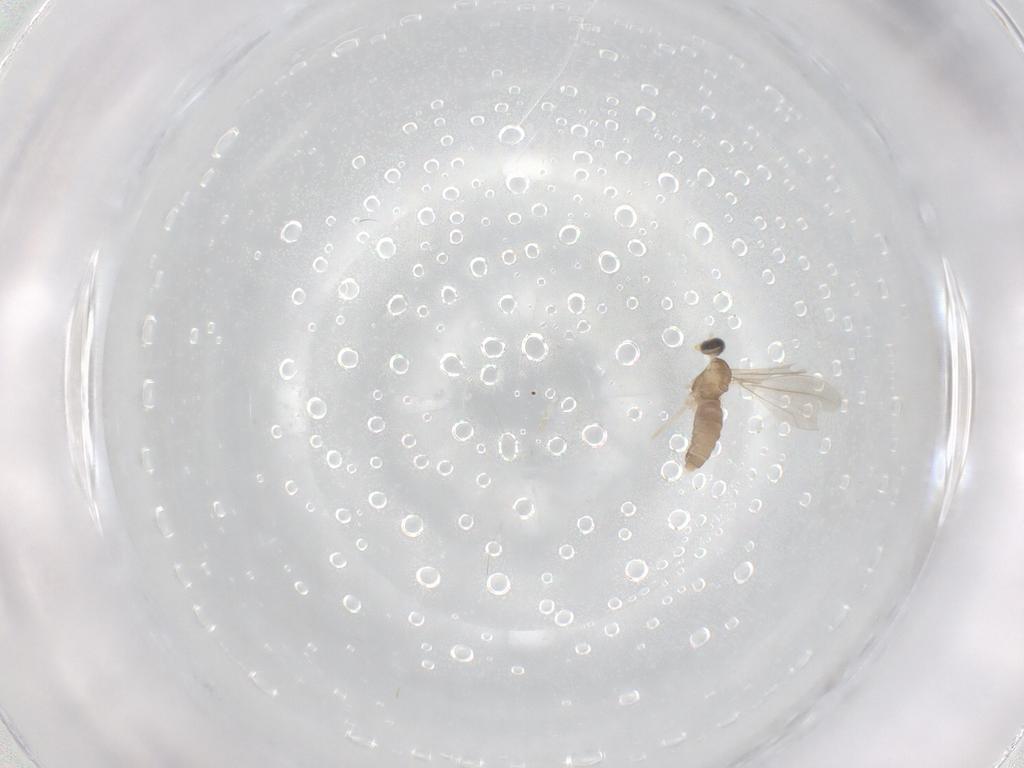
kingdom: Animalia
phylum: Arthropoda
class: Insecta
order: Diptera
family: Cecidomyiidae
